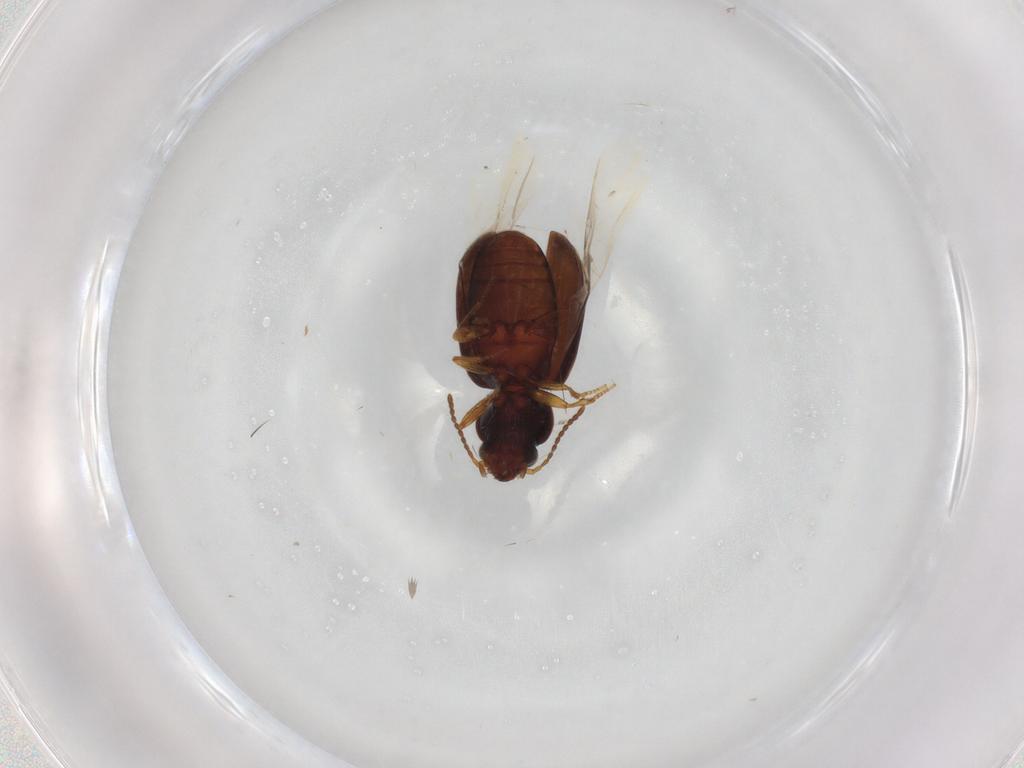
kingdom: Animalia
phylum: Arthropoda
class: Insecta
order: Coleoptera
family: Carabidae
